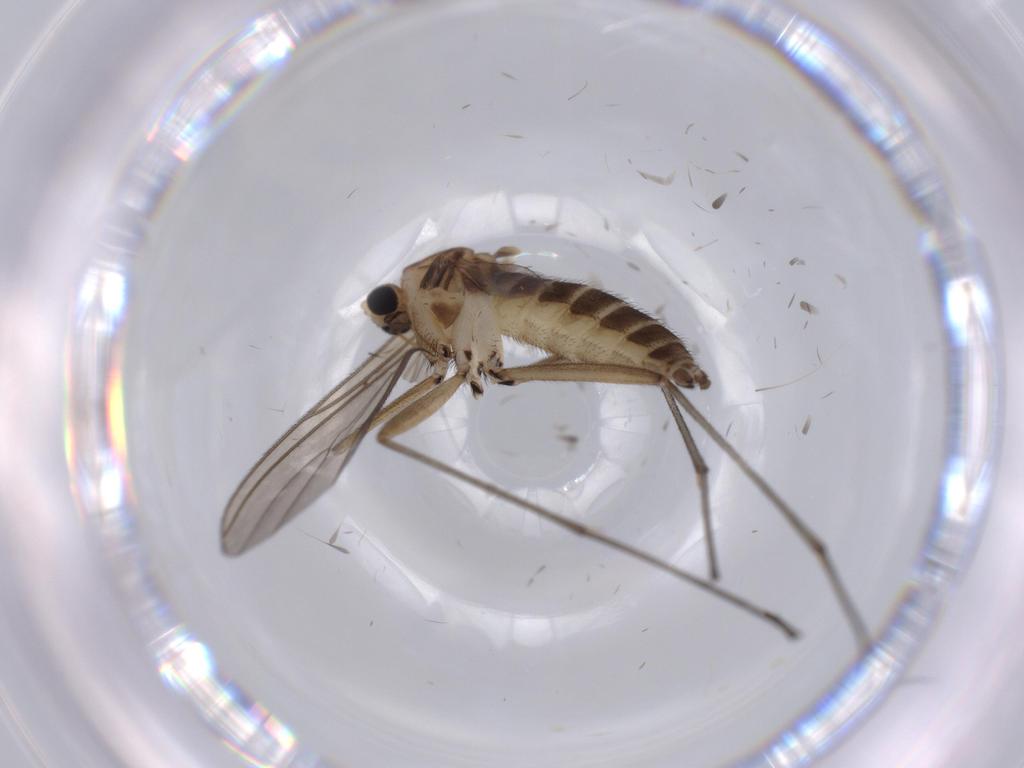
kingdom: Animalia
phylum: Arthropoda
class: Insecta
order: Diptera
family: Sciaridae
